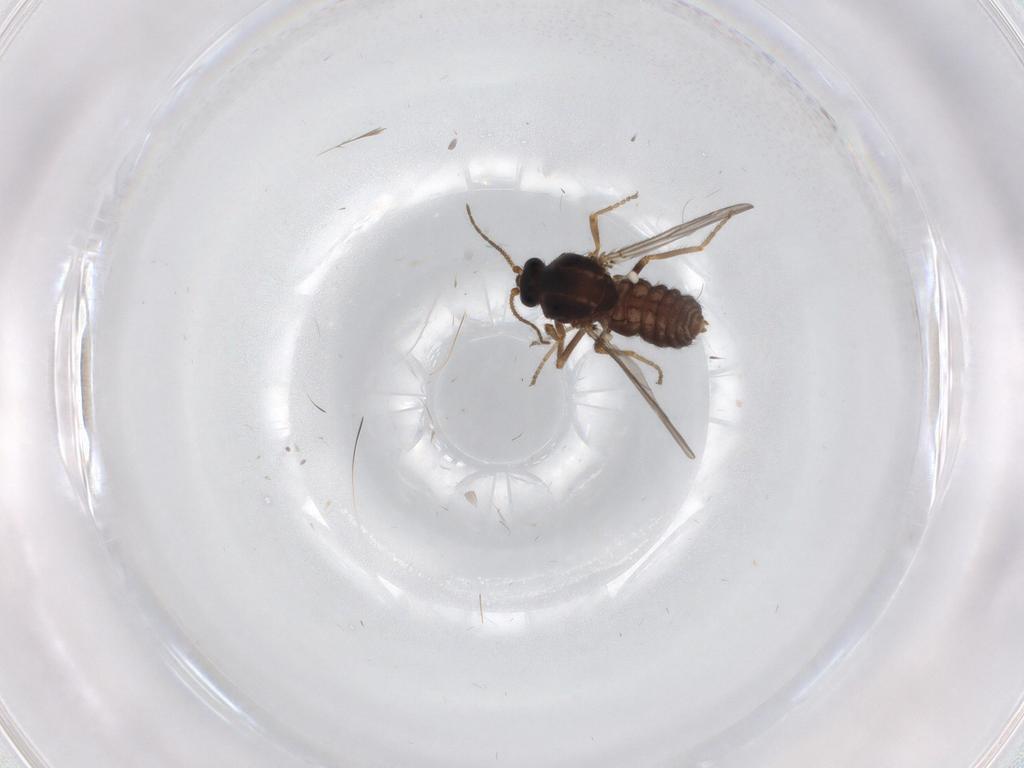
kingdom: Animalia
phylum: Arthropoda
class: Insecta
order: Diptera
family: Ceratopogonidae
